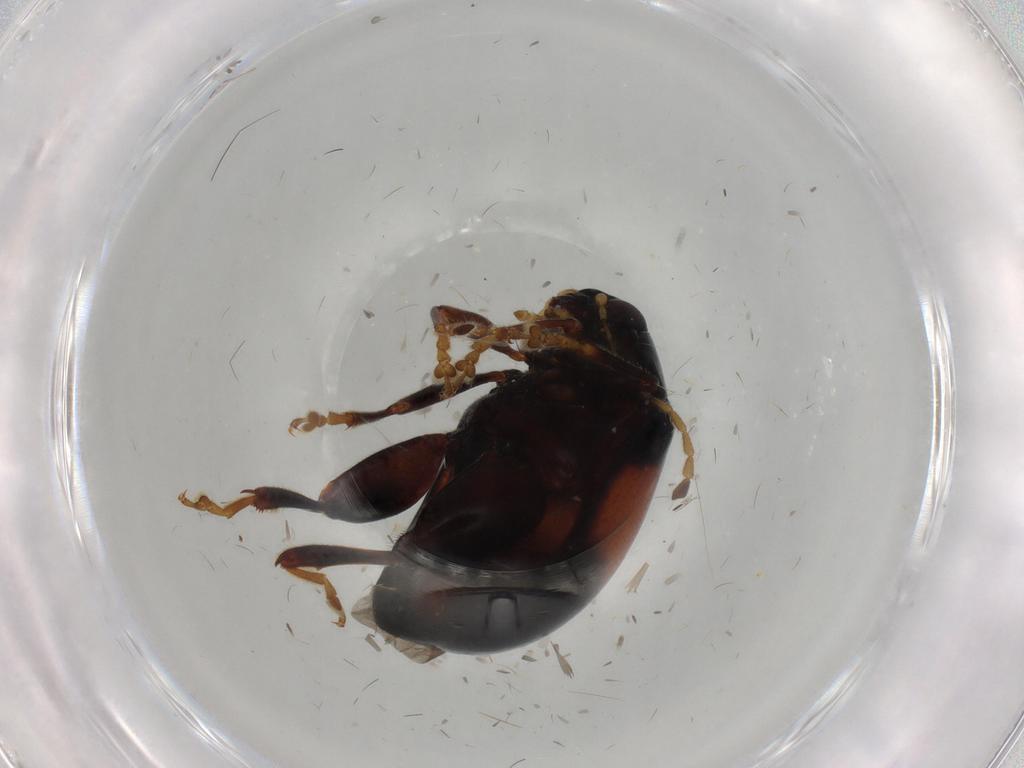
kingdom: Animalia
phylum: Arthropoda
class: Insecta
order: Coleoptera
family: Chrysomelidae
